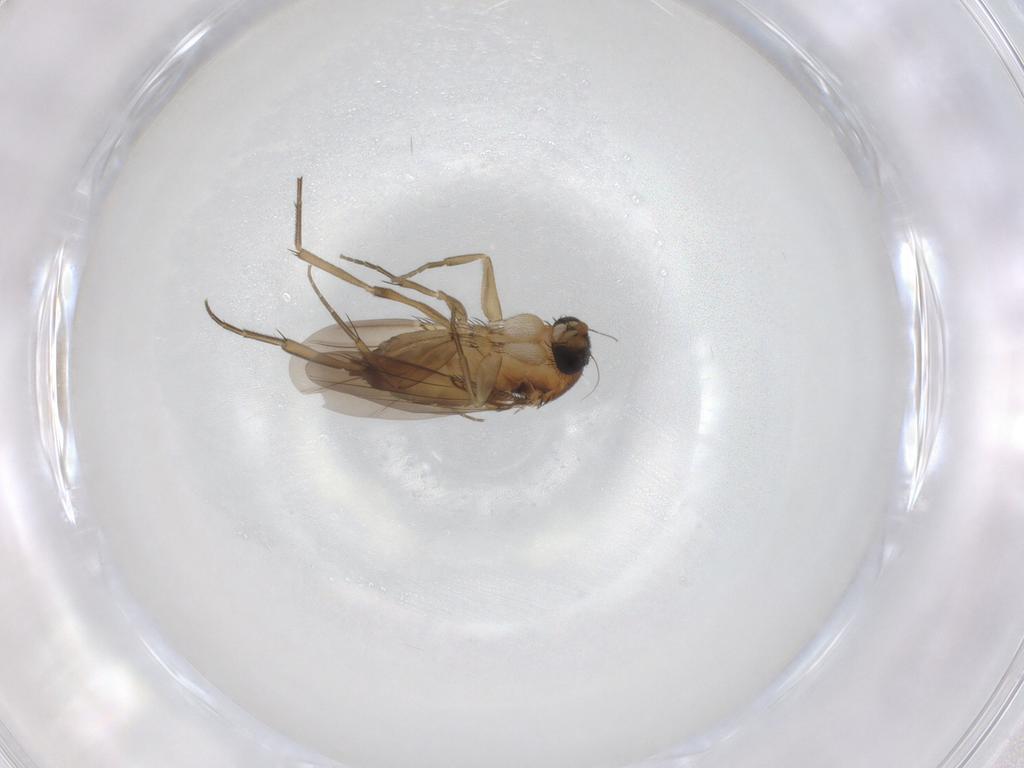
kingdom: Animalia
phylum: Arthropoda
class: Insecta
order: Diptera
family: Phoridae
